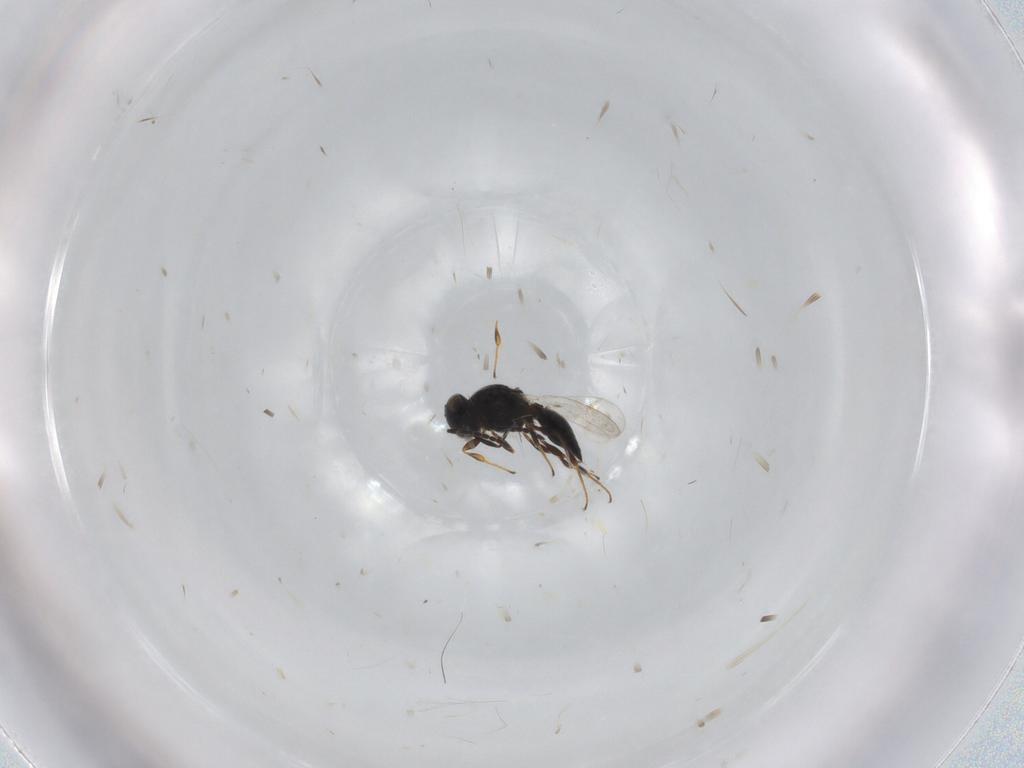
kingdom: Animalia
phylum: Arthropoda
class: Insecta
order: Hymenoptera
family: Platygastridae
